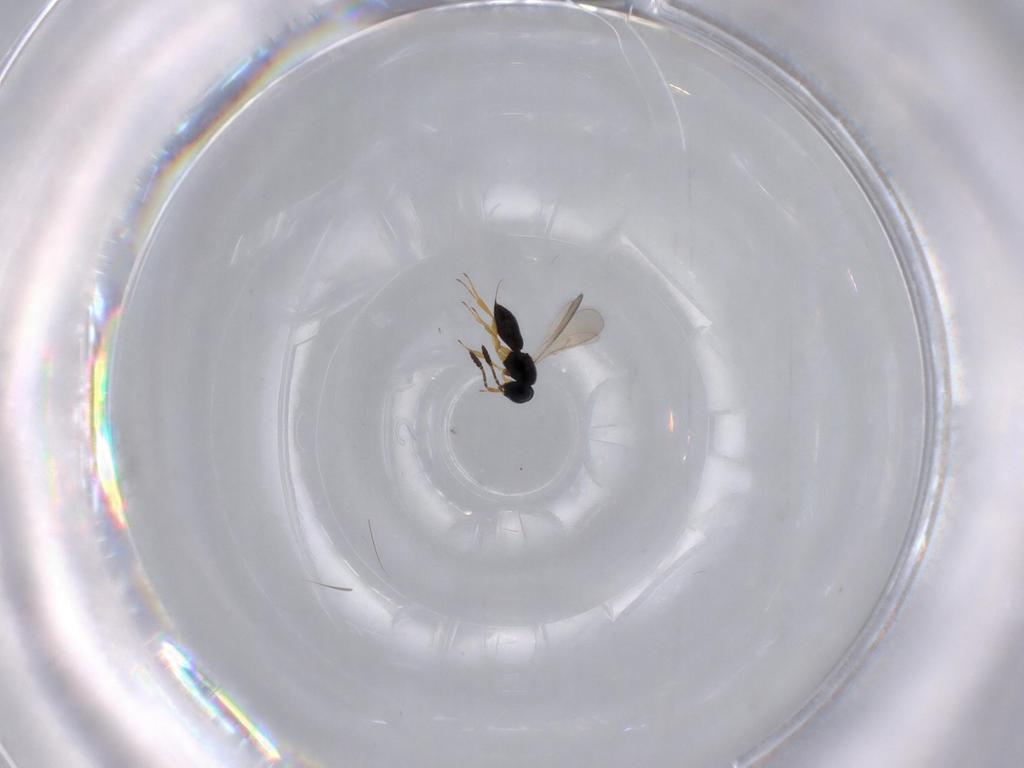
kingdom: Animalia
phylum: Arthropoda
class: Insecta
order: Hymenoptera
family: Scelionidae
